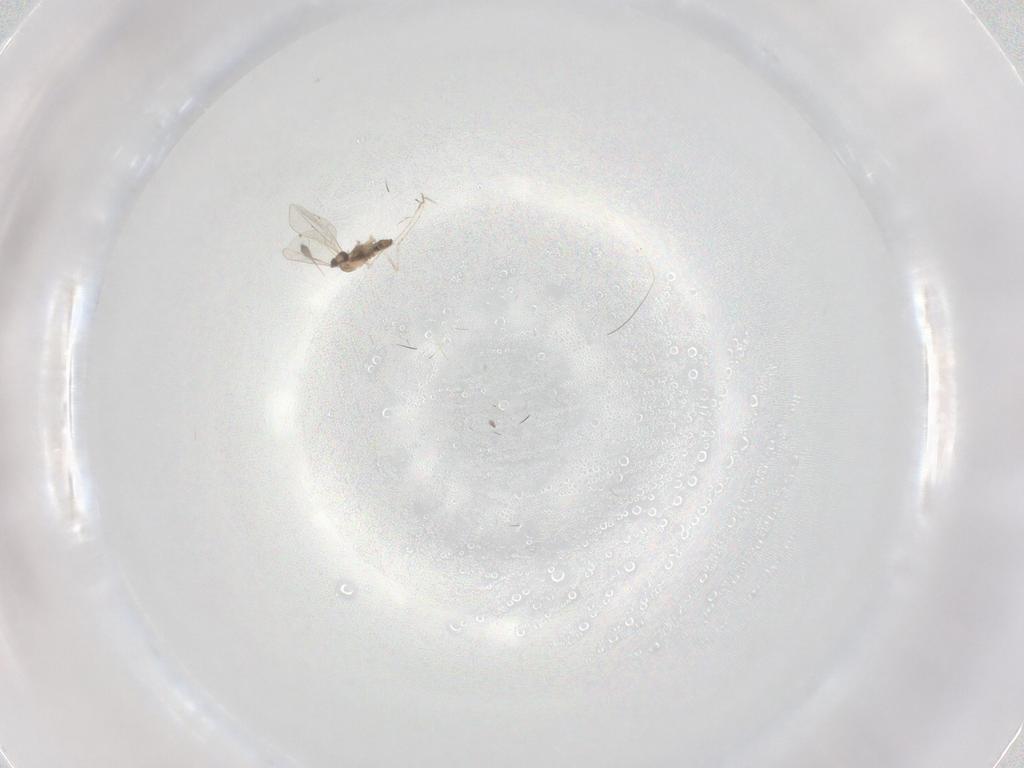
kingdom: Animalia
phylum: Arthropoda
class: Insecta
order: Diptera
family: Cecidomyiidae
